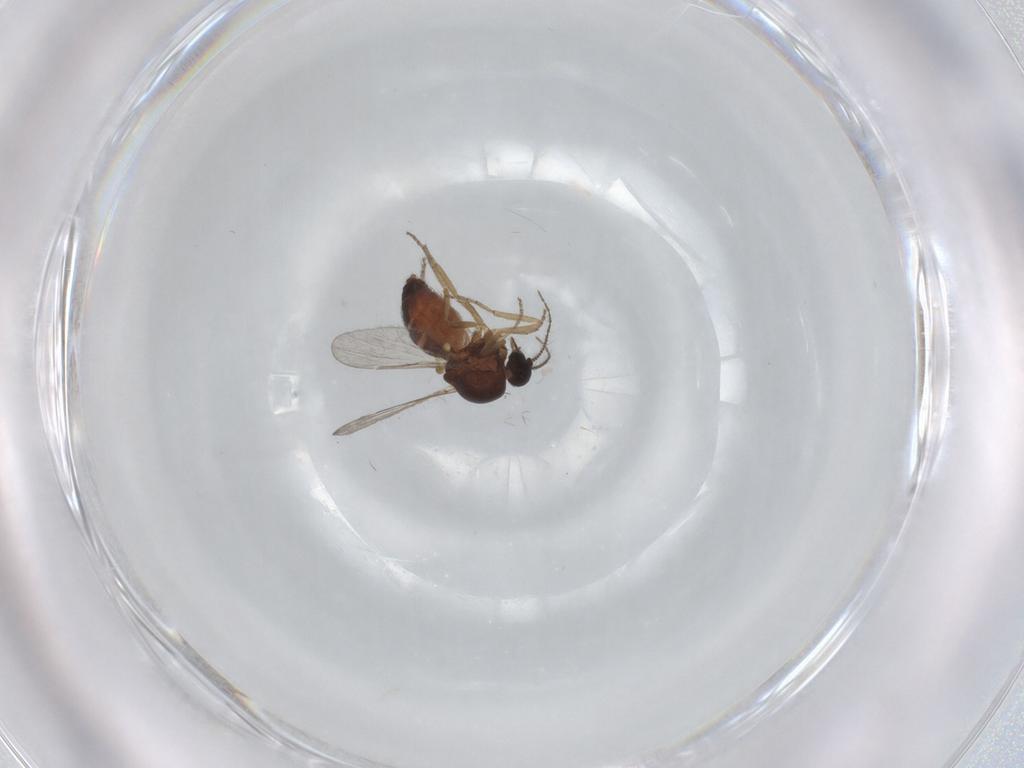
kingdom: Animalia
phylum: Arthropoda
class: Insecta
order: Diptera
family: Ceratopogonidae
